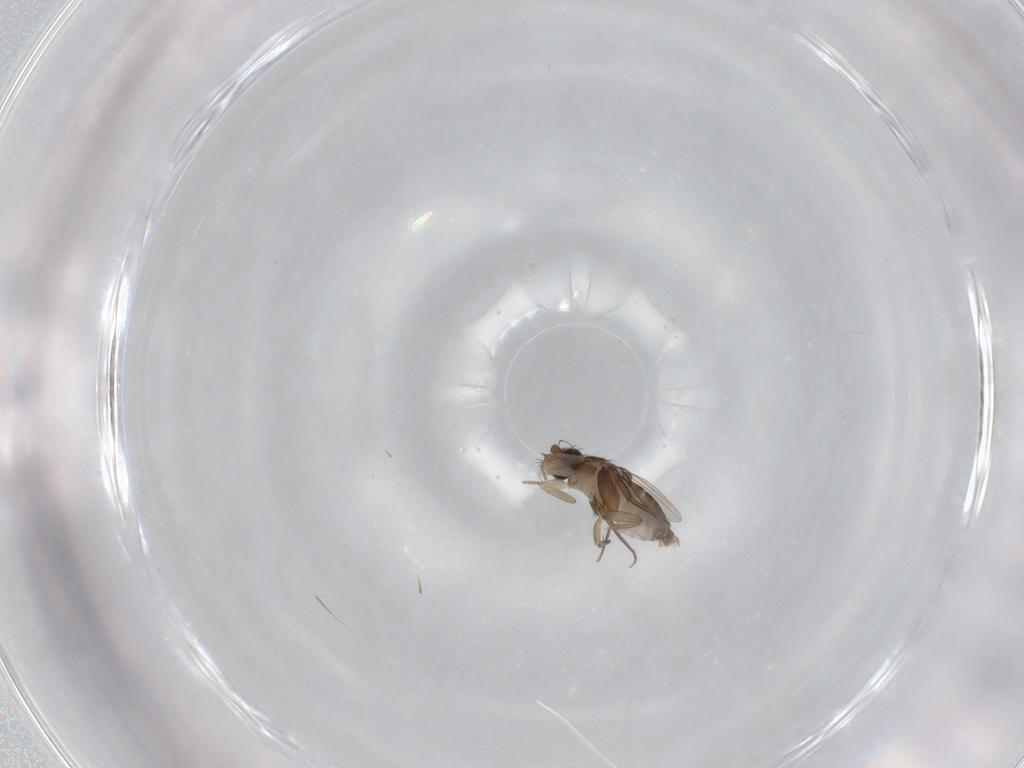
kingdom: Animalia
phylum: Arthropoda
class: Insecta
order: Diptera
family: Phoridae
